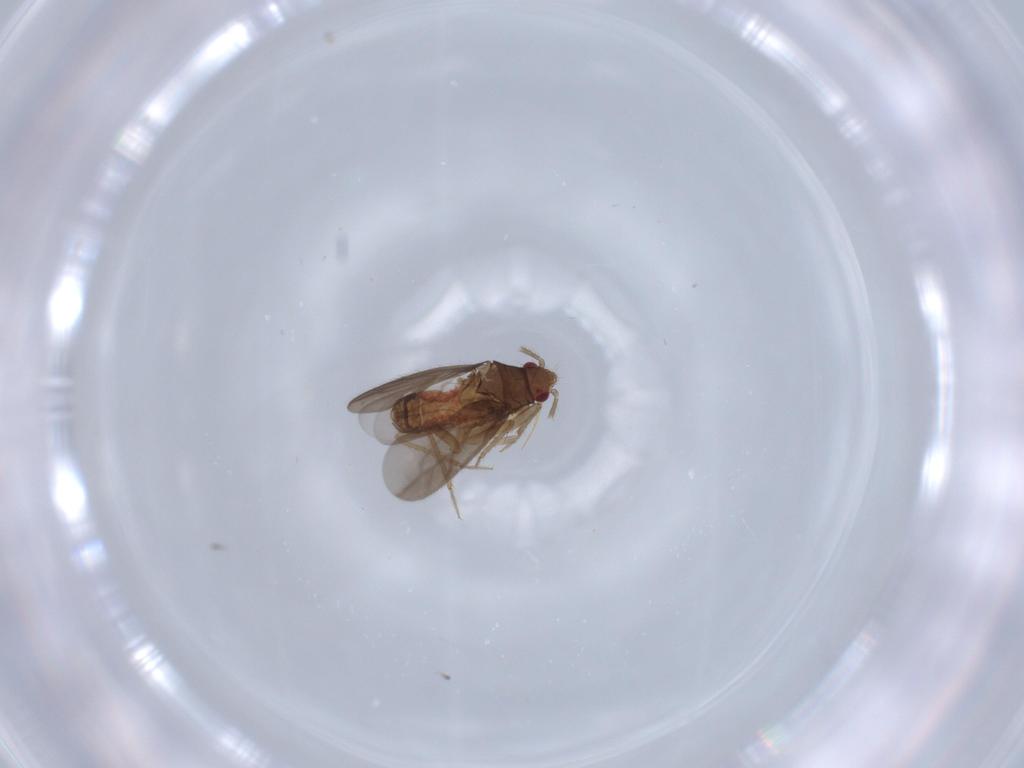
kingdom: Animalia
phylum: Arthropoda
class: Insecta
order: Hemiptera
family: Ceratocombidae
